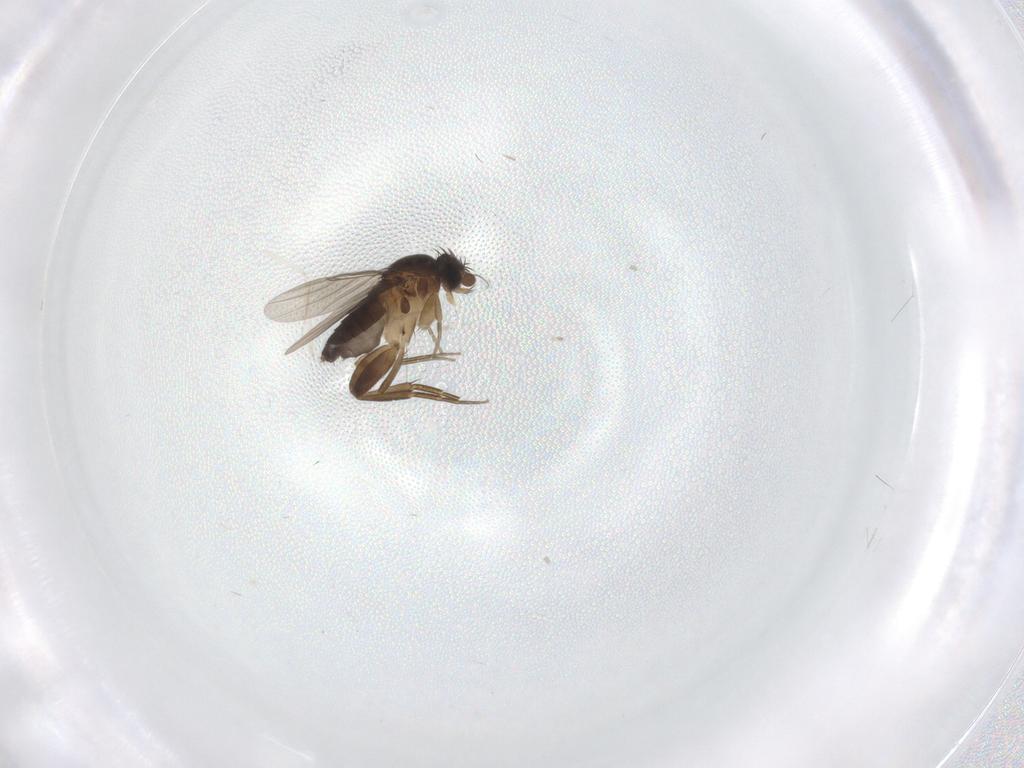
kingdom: Animalia
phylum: Arthropoda
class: Insecta
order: Diptera
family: Phoridae
